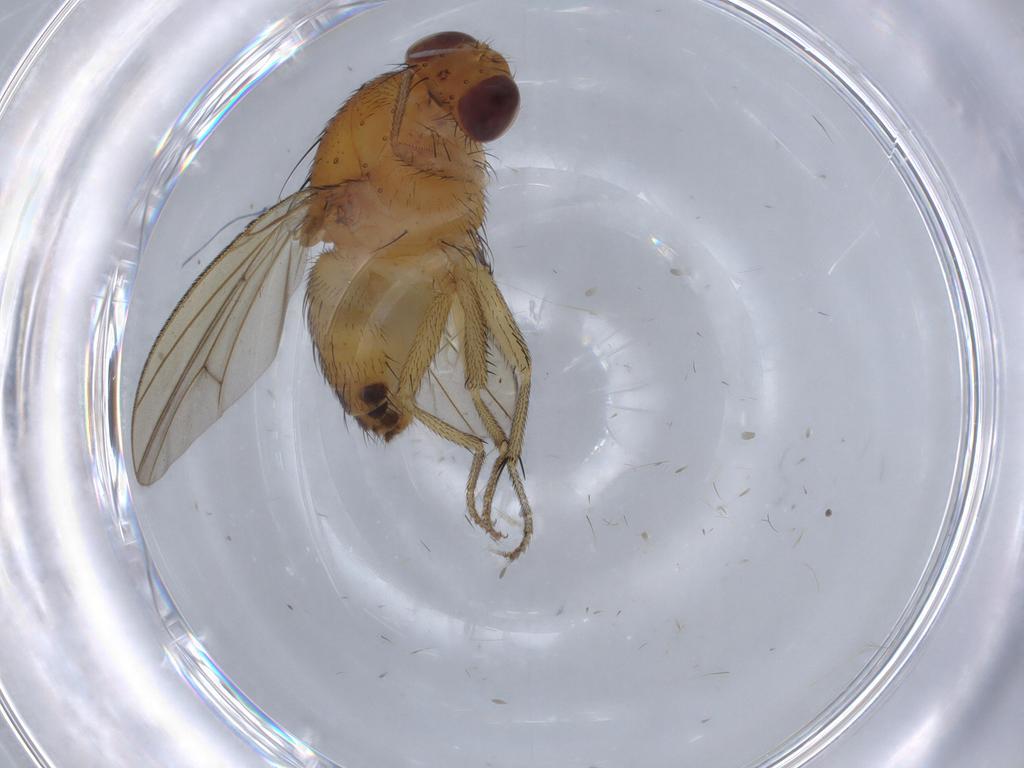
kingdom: Animalia
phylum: Arthropoda
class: Insecta
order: Diptera
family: Lauxaniidae
